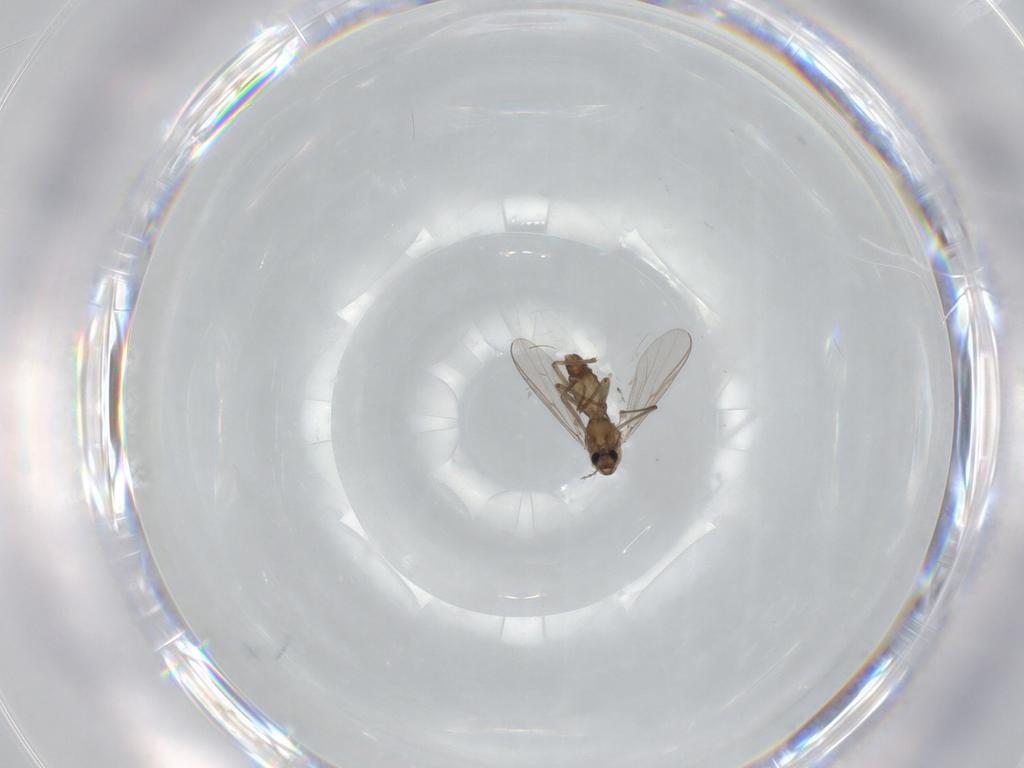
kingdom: Animalia
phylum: Arthropoda
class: Insecta
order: Diptera
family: Chironomidae
